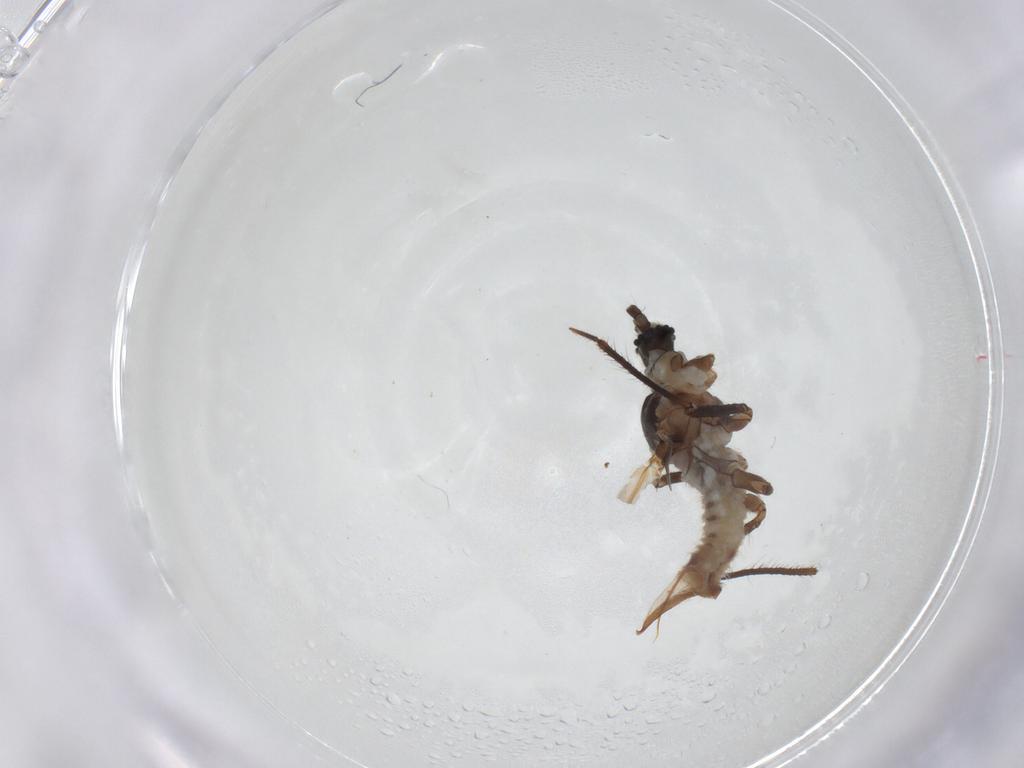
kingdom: Animalia
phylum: Arthropoda
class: Insecta
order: Hemiptera
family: Putoidae
